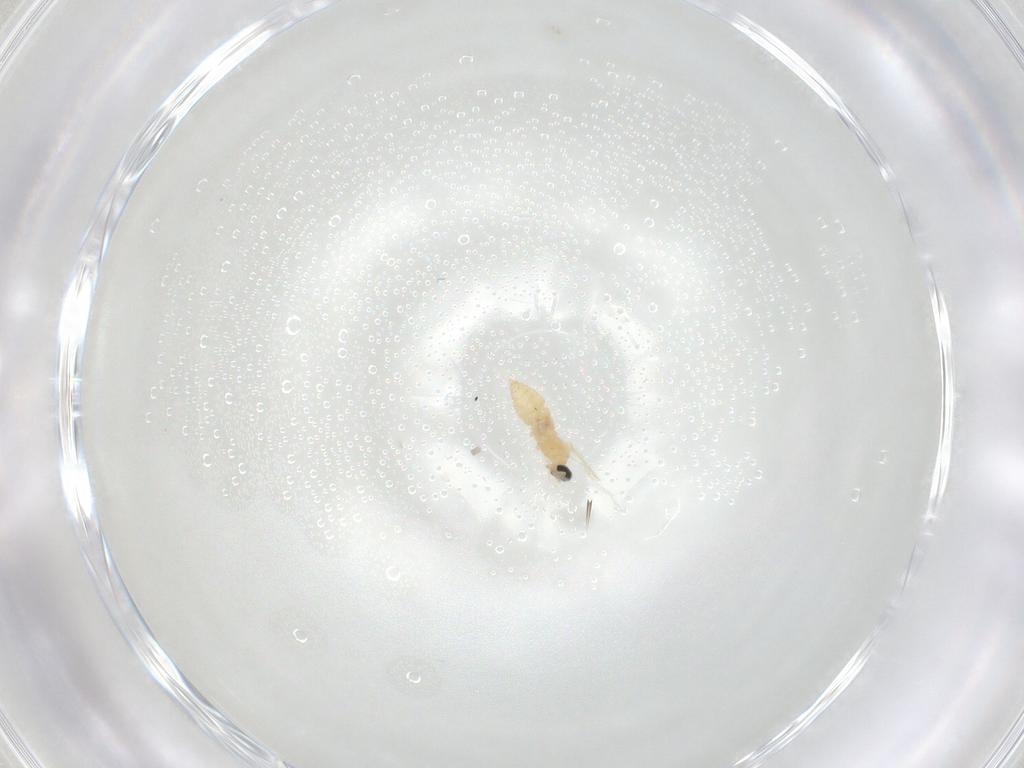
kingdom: Animalia
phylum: Arthropoda
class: Insecta
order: Diptera
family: Cecidomyiidae
